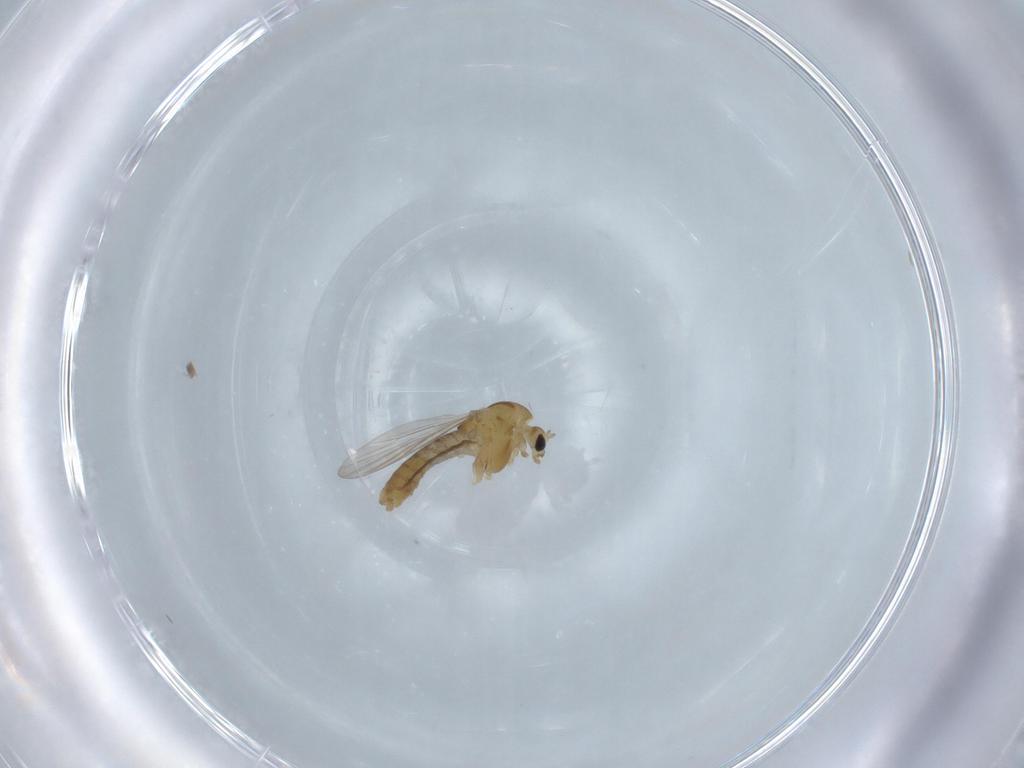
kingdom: Animalia
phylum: Arthropoda
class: Insecta
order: Diptera
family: Chironomidae
